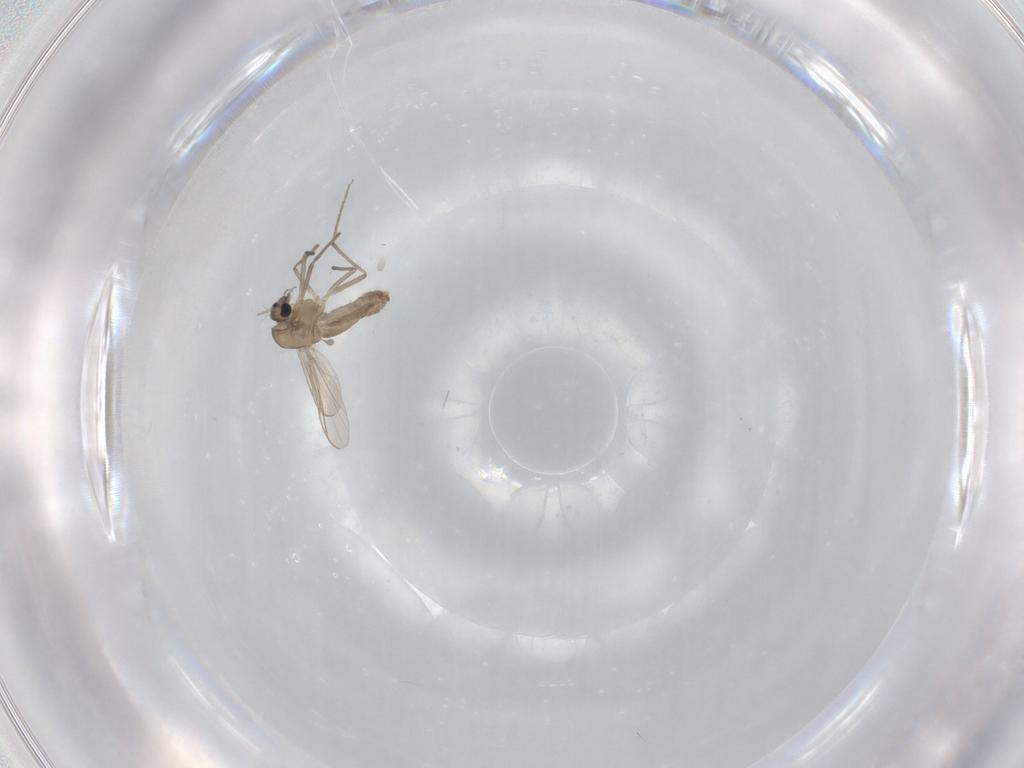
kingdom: Animalia
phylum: Arthropoda
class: Insecta
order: Diptera
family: Chironomidae
